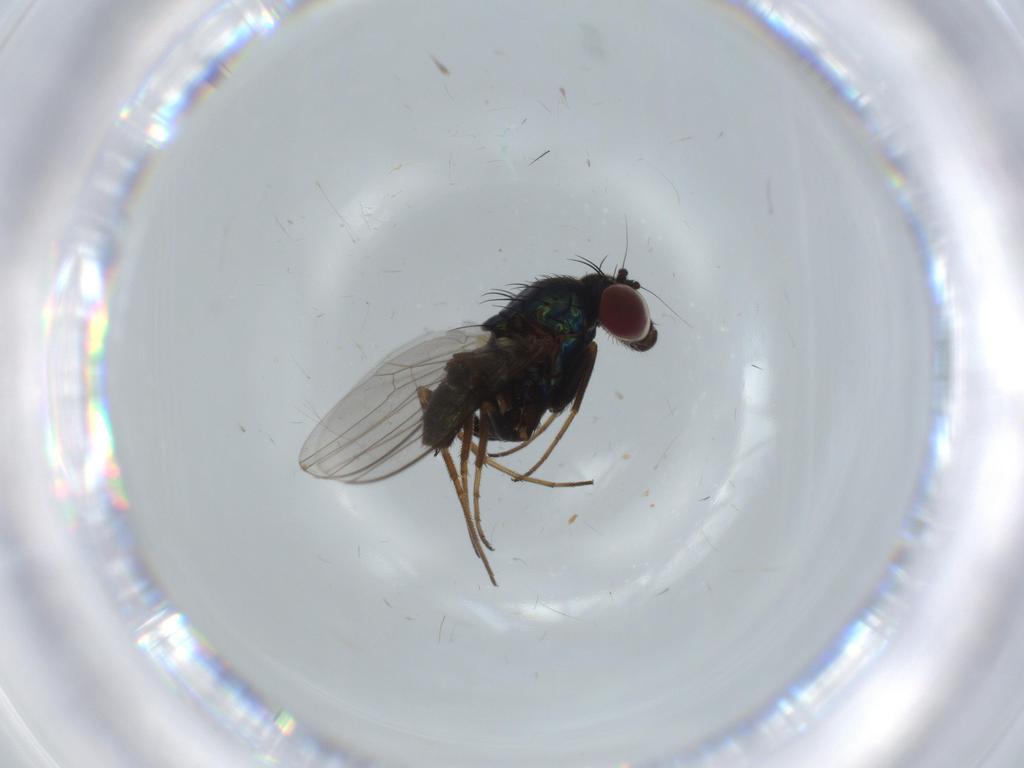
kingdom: Animalia
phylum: Arthropoda
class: Insecta
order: Diptera
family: Dolichopodidae
